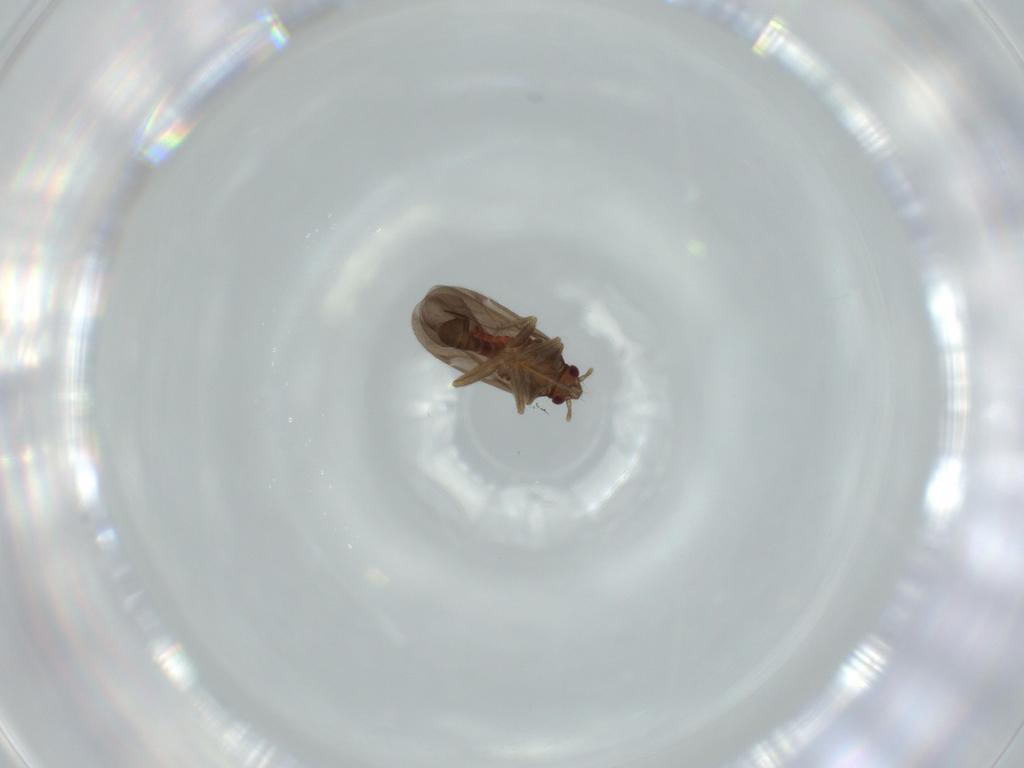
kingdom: Animalia
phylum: Arthropoda
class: Insecta
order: Hemiptera
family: Ceratocombidae
